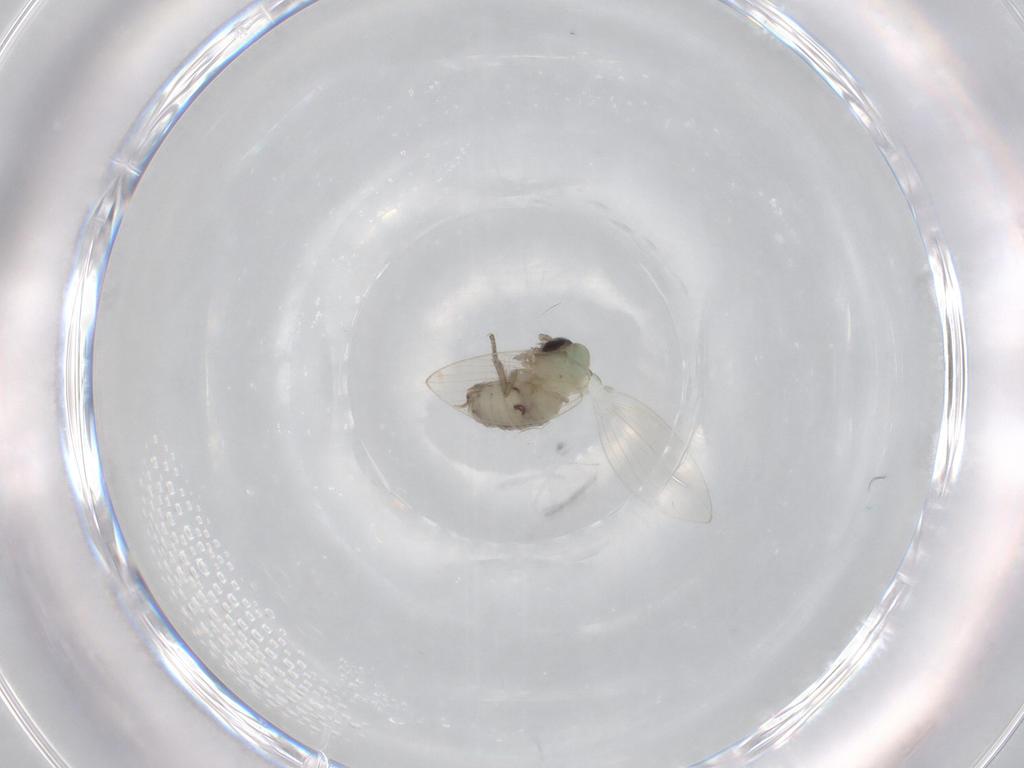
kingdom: Animalia
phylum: Arthropoda
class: Insecta
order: Diptera
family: Psychodidae
